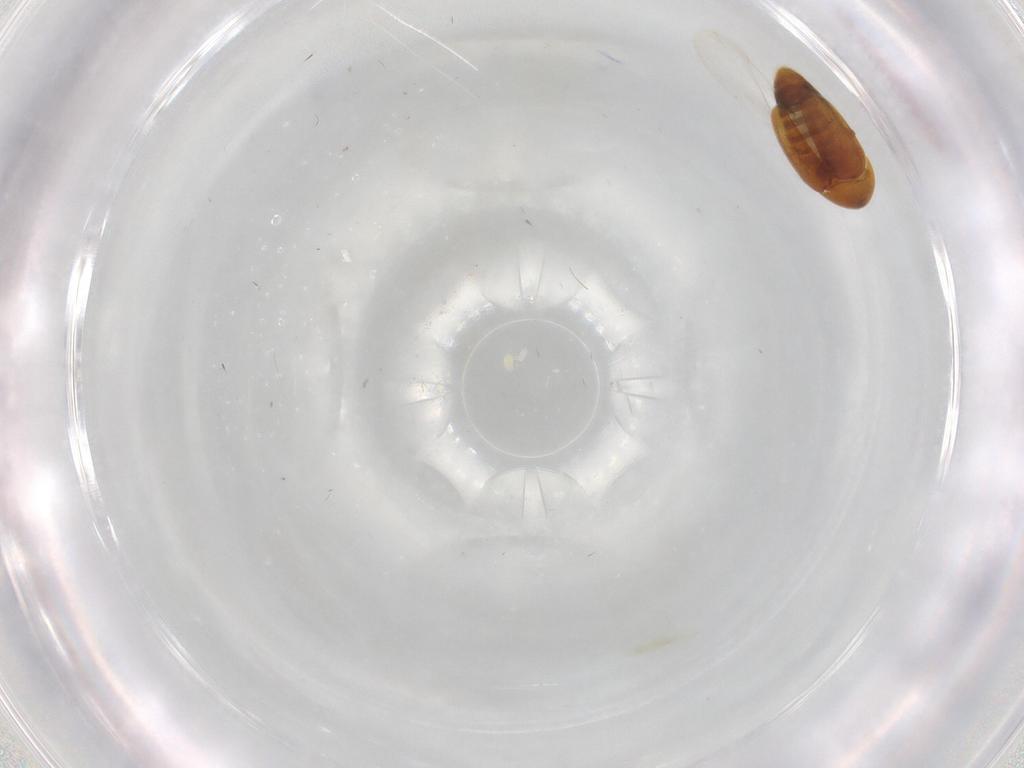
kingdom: Animalia
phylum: Arthropoda
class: Insecta
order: Coleoptera
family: Corylophidae
